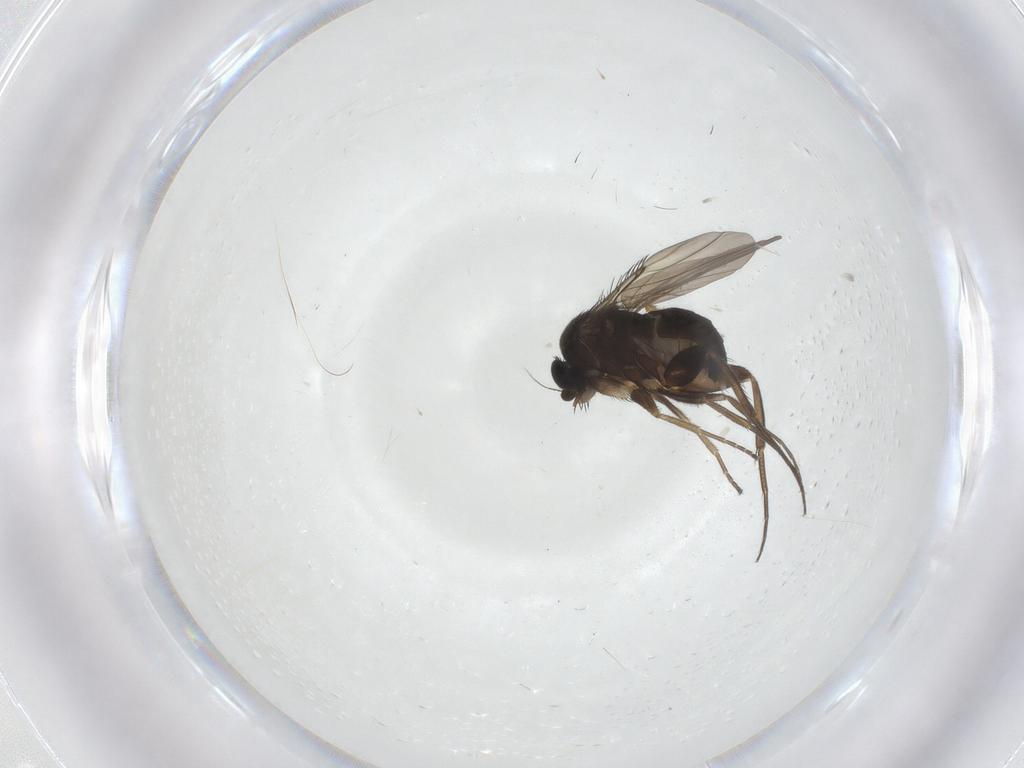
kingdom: Animalia
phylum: Arthropoda
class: Insecta
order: Diptera
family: Phoridae
